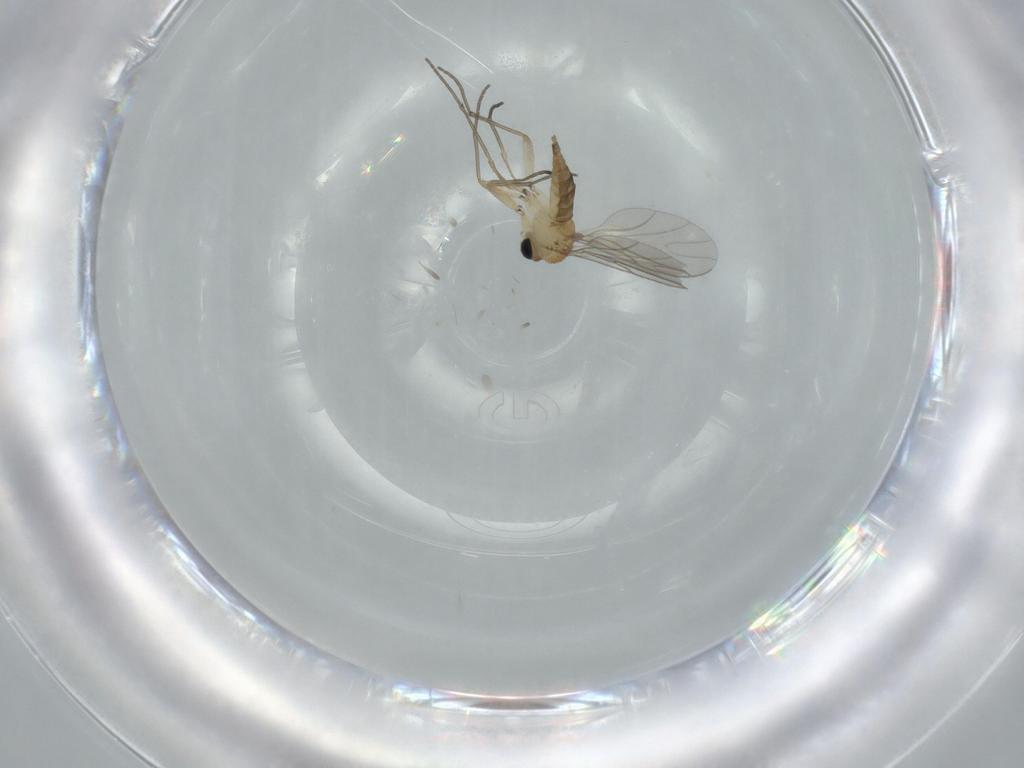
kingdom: Animalia
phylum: Arthropoda
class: Insecta
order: Diptera
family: Sciaridae
